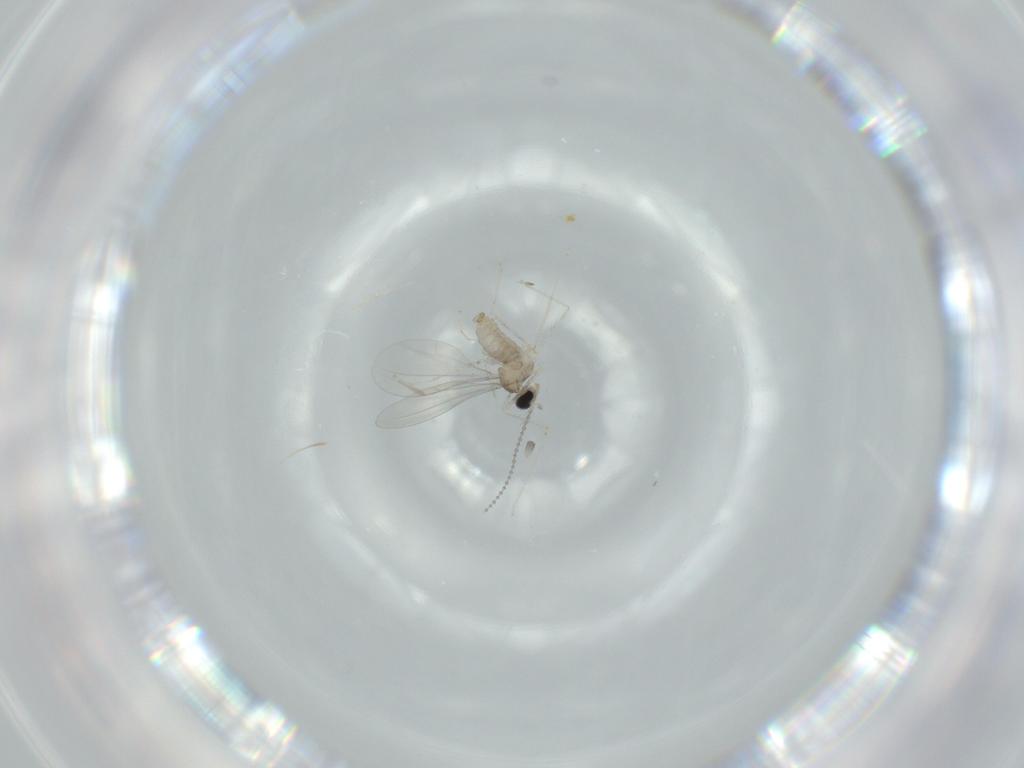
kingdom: Animalia
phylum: Arthropoda
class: Insecta
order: Diptera
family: Cecidomyiidae
